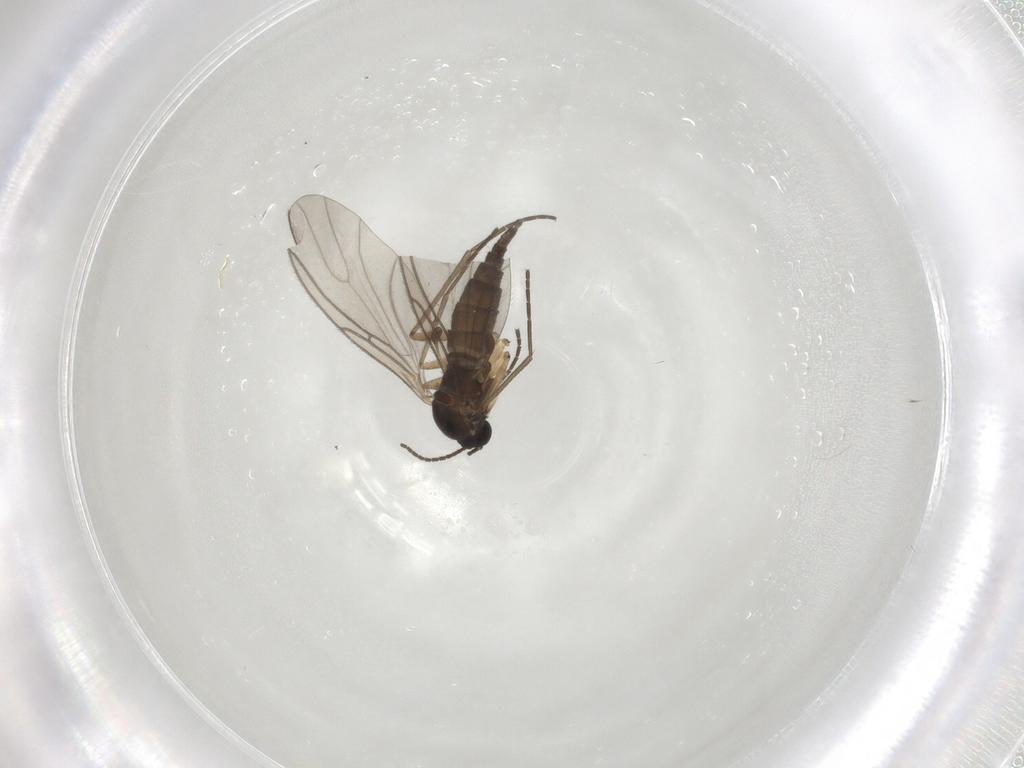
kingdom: Animalia
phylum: Arthropoda
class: Insecta
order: Diptera
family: Sciaridae
